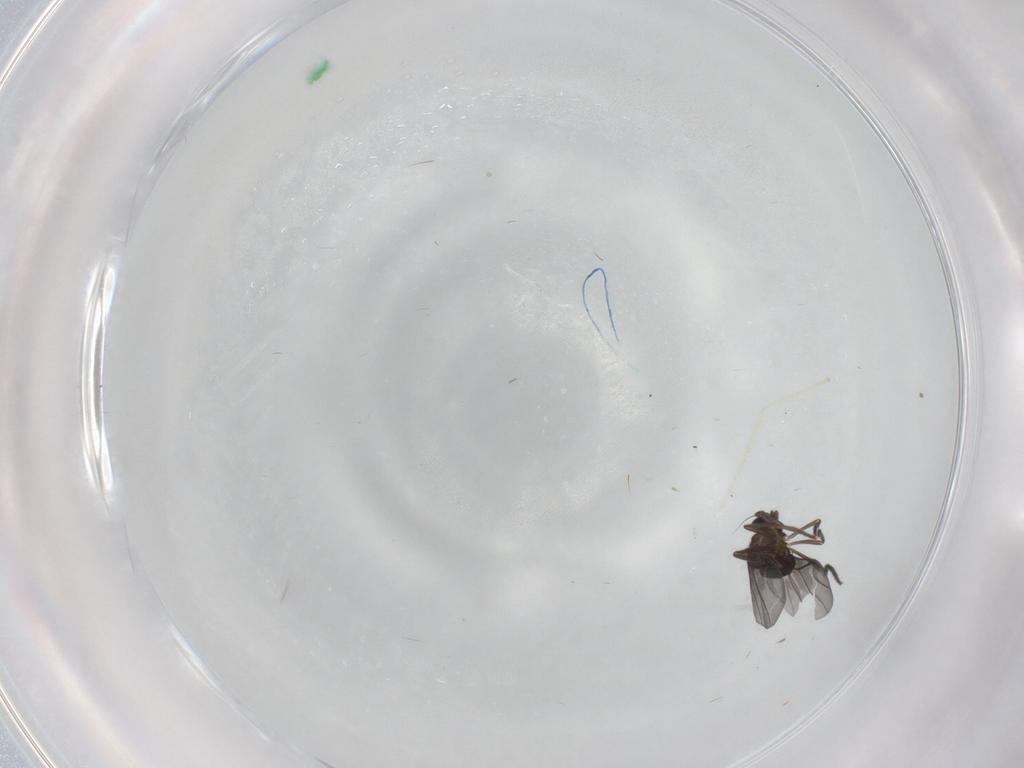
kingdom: Animalia
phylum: Arthropoda
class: Insecta
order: Diptera
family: Phoridae
